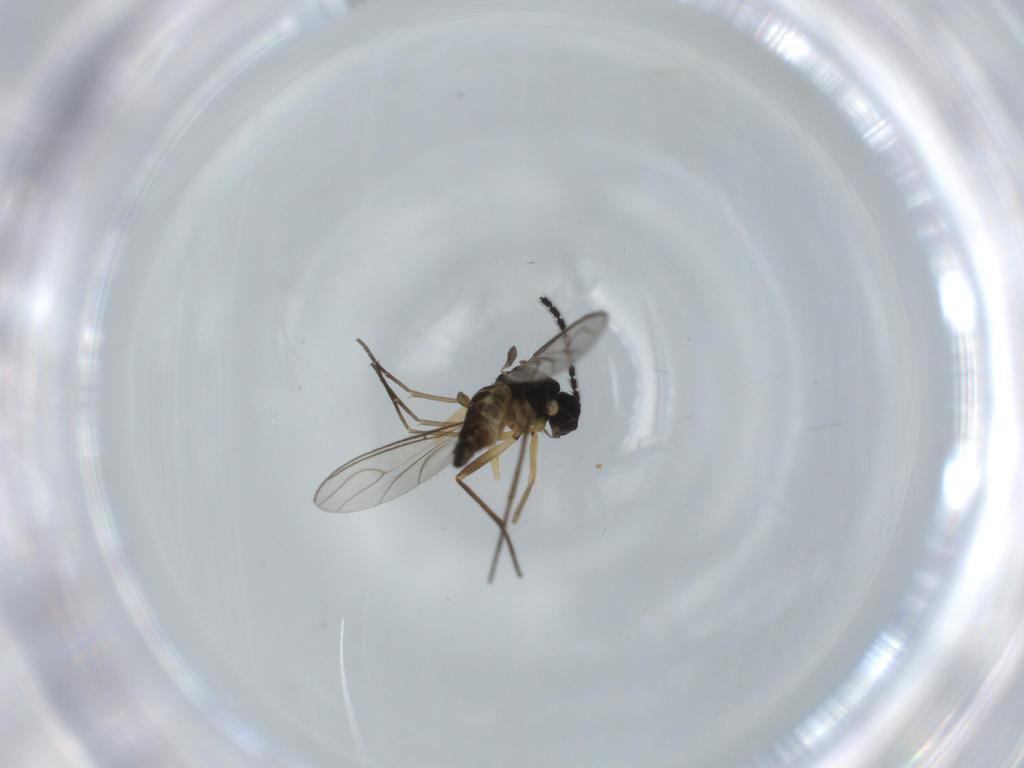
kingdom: Animalia
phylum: Arthropoda
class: Insecta
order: Diptera
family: Sciaridae
